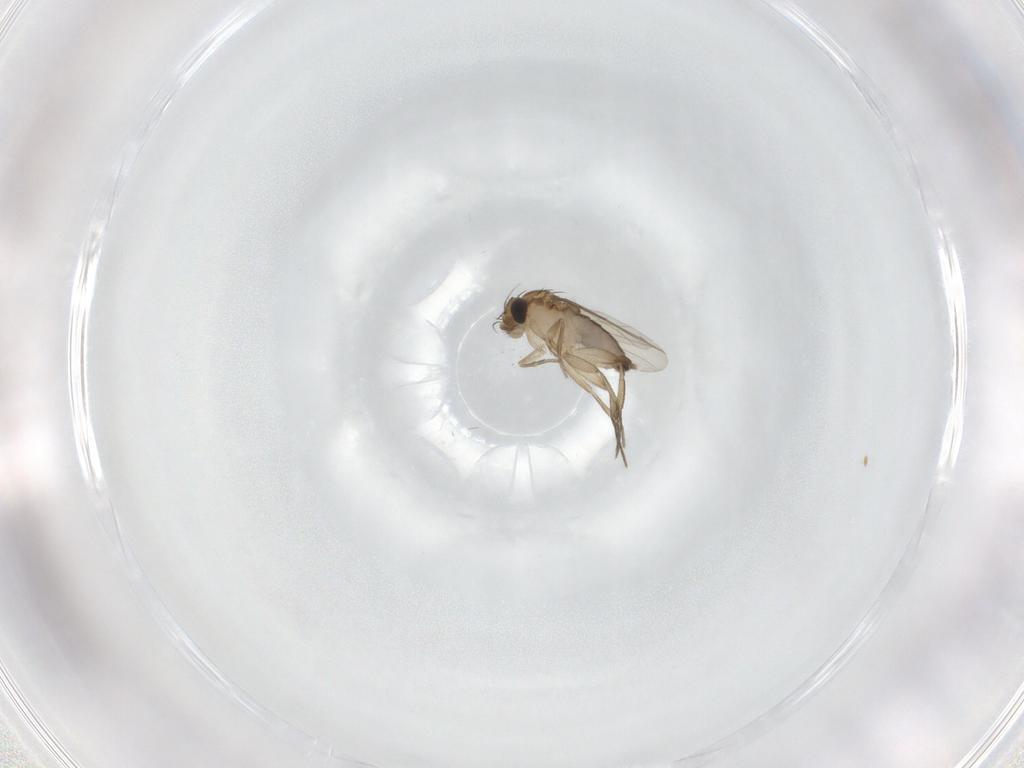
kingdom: Animalia
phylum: Arthropoda
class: Insecta
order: Diptera
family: Phoridae
